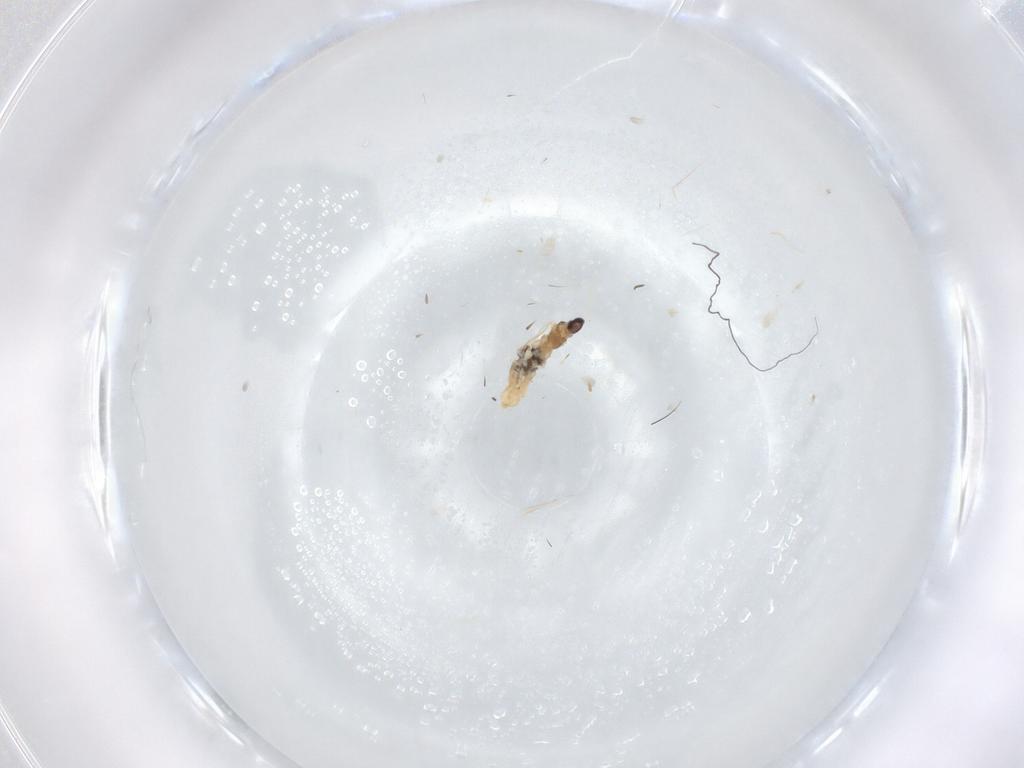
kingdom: Animalia
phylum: Arthropoda
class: Insecta
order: Diptera
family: Cecidomyiidae
